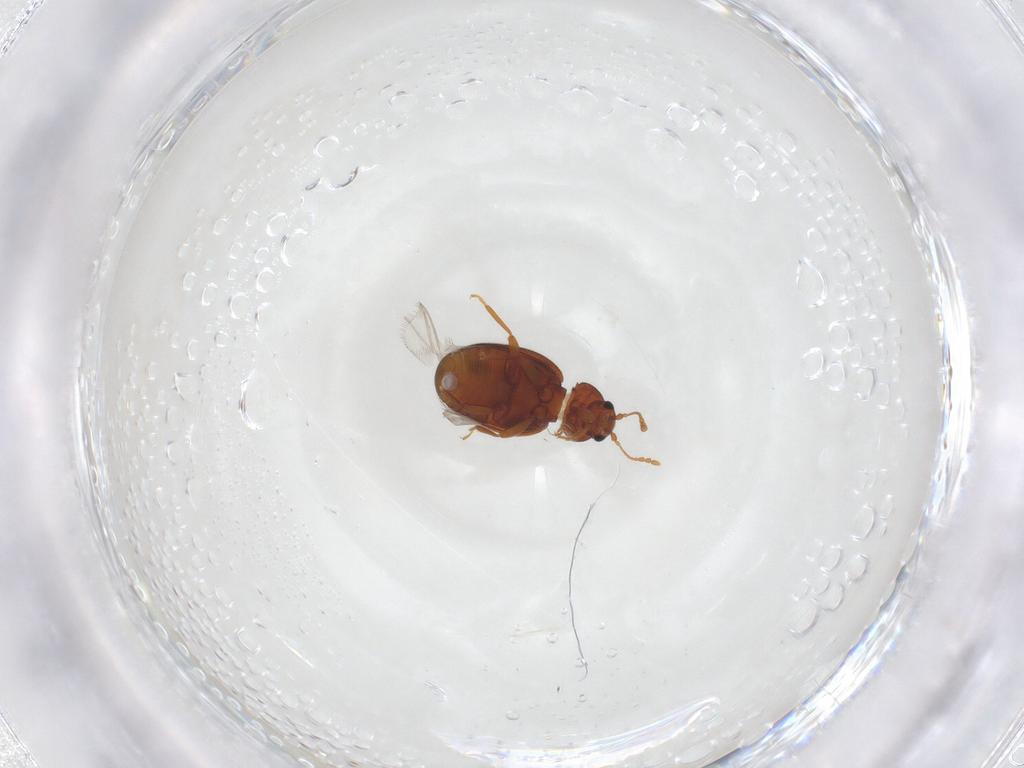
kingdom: Animalia
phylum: Arthropoda
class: Insecta
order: Coleoptera
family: Latridiidae
